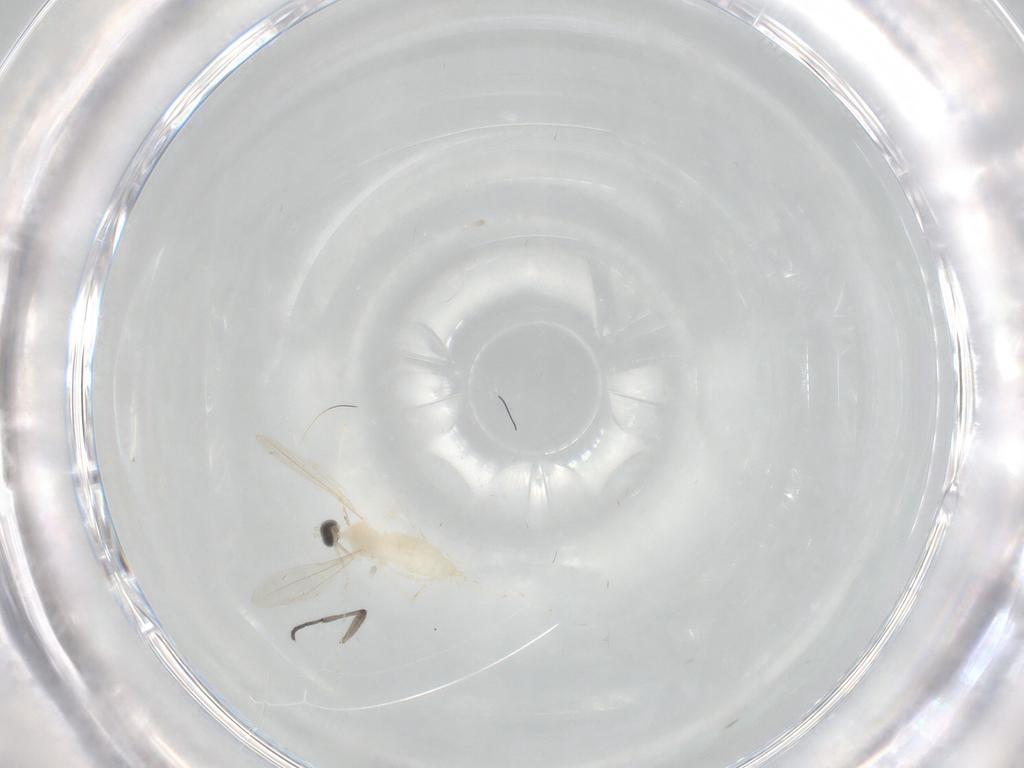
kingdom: Animalia
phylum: Arthropoda
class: Insecta
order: Diptera
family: Sciaridae
